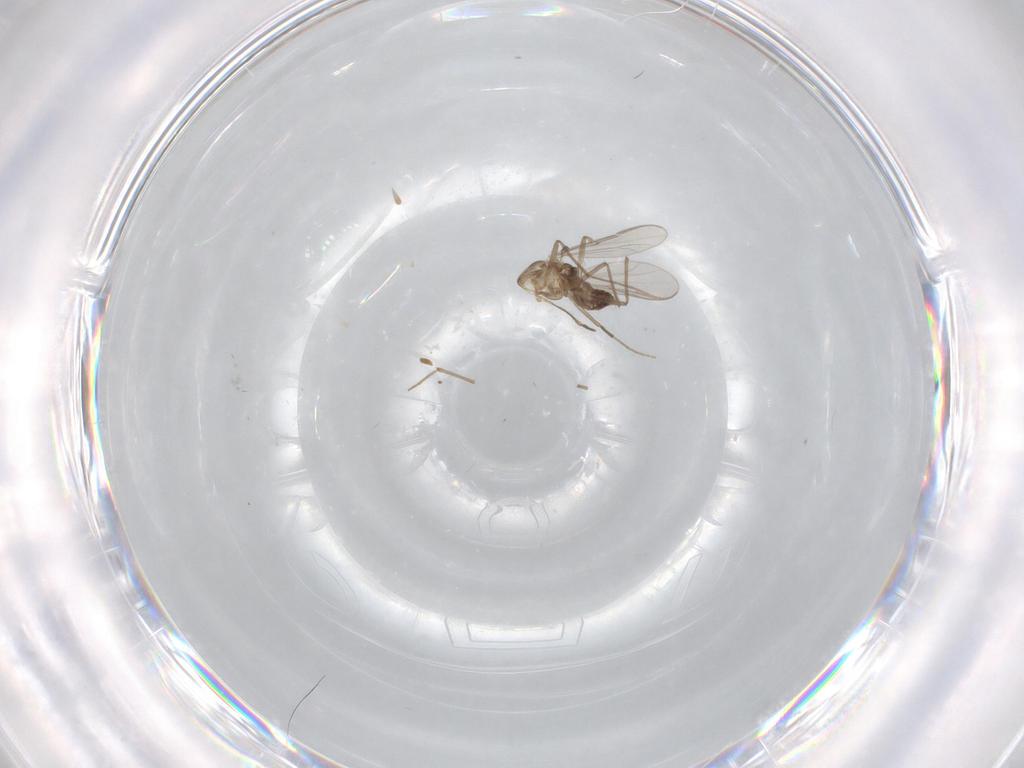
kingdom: Animalia
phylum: Arthropoda
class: Insecta
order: Diptera
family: Chironomidae
